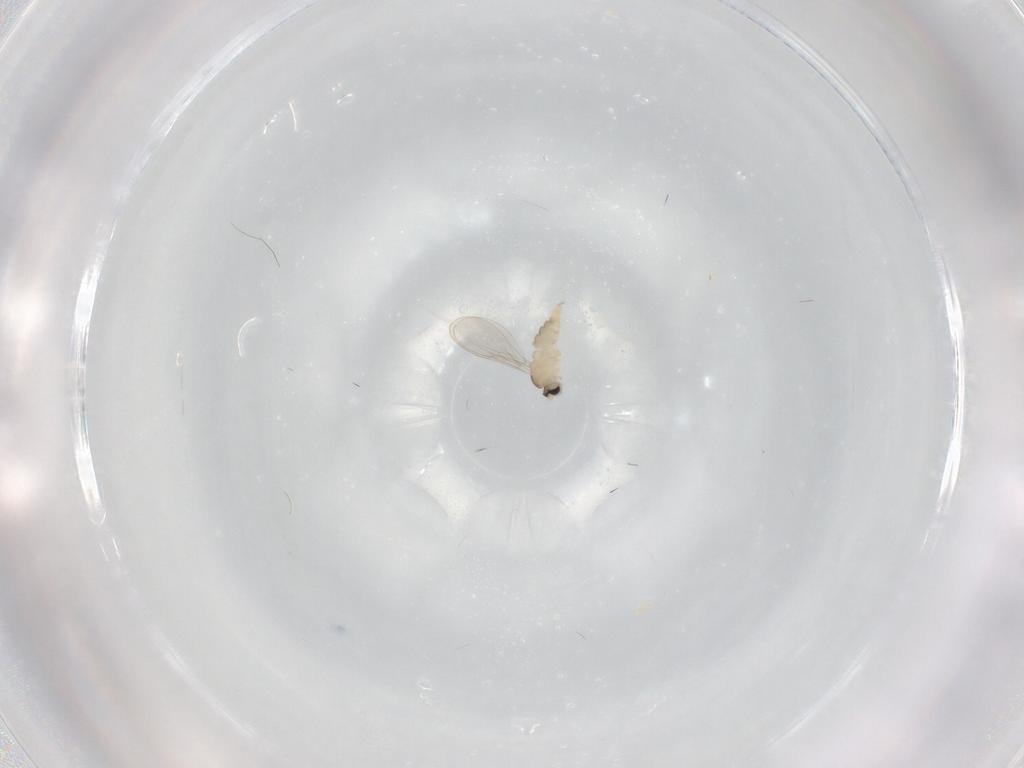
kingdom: Animalia
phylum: Arthropoda
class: Insecta
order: Diptera
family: Cecidomyiidae
